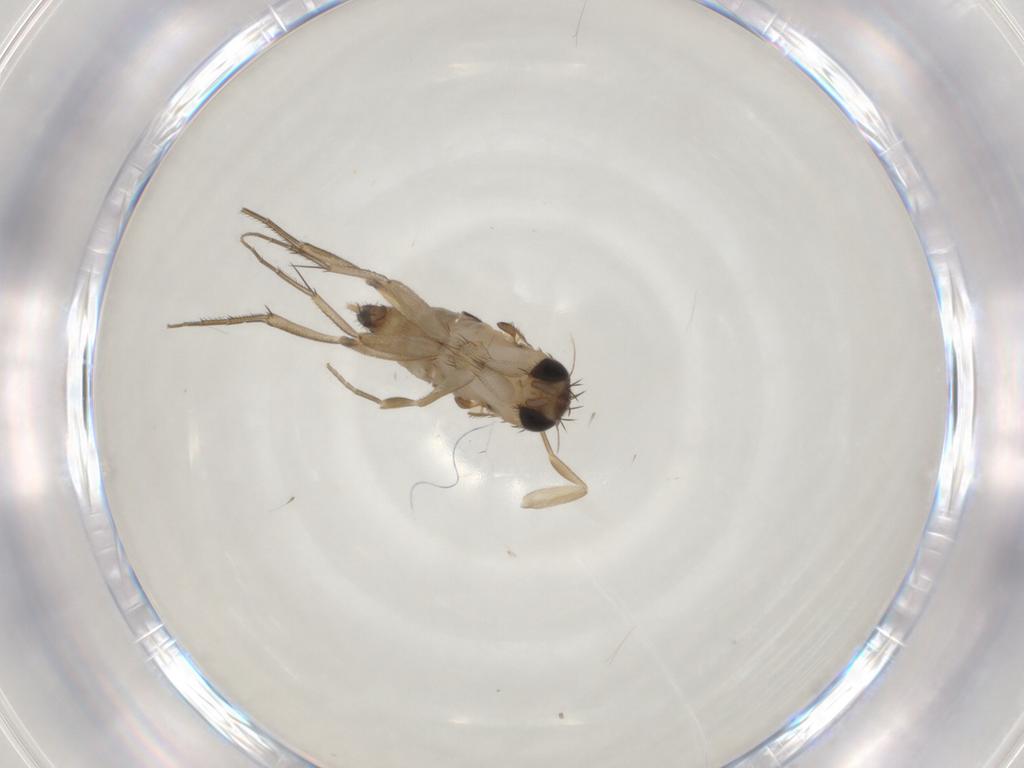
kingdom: Animalia
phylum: Arthropoda
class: Insecta
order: Diptera
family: Phoridae
